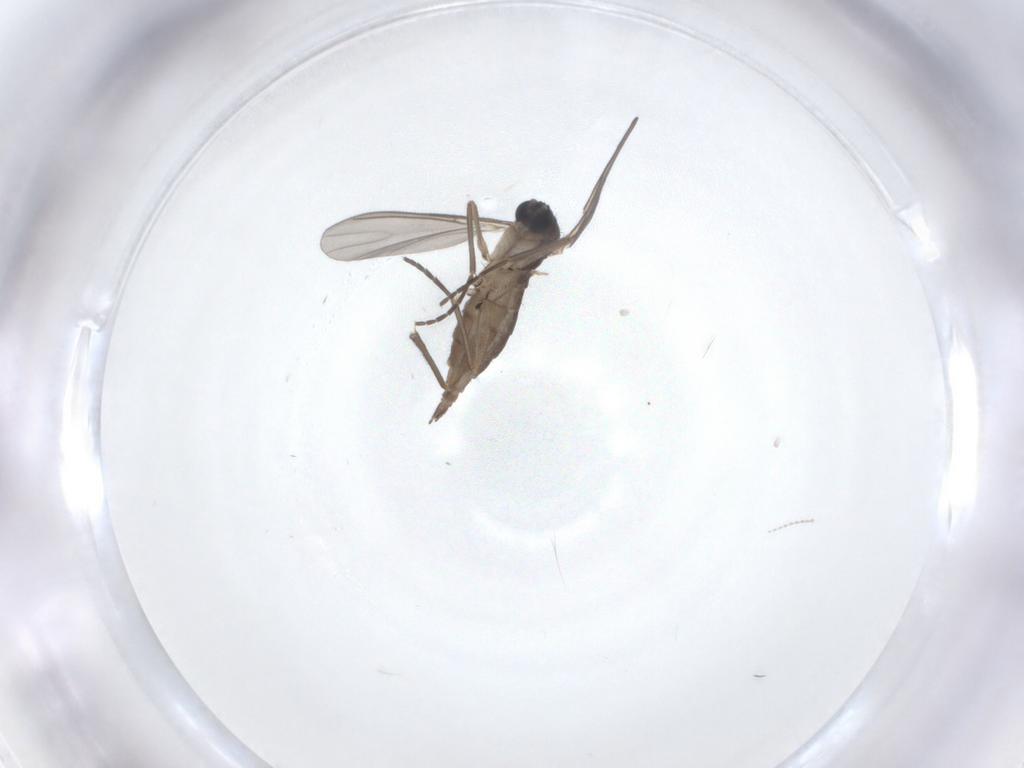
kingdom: Animalia
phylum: Arthropoda
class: Insecta
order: Diptera
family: Sciaridae
